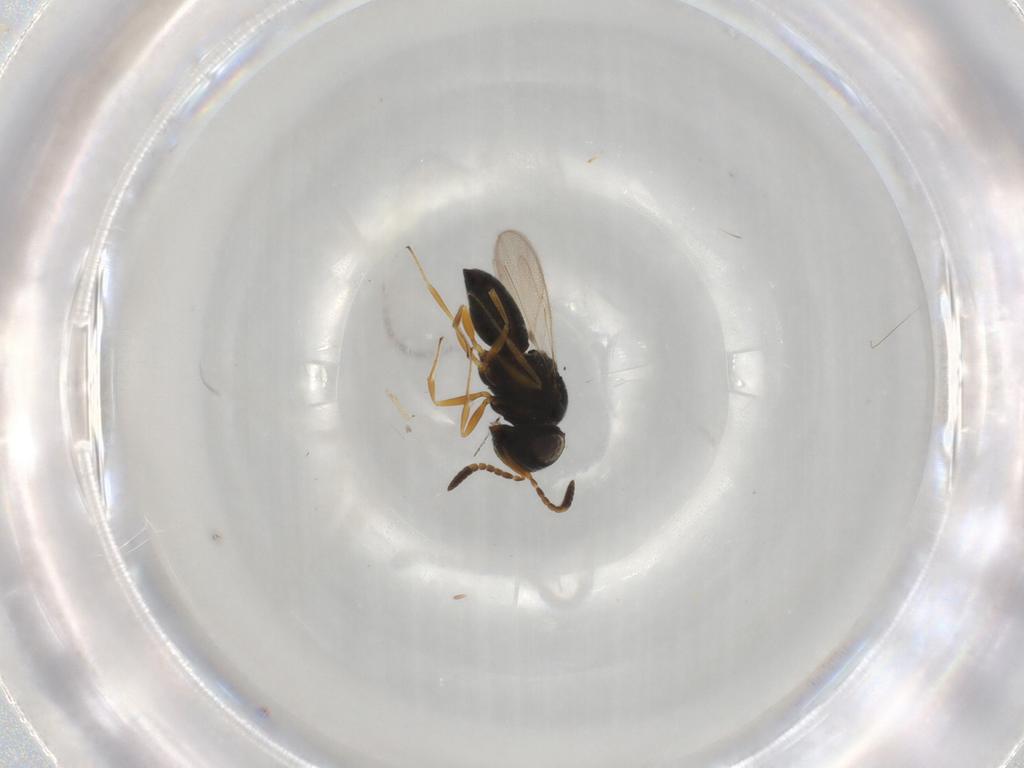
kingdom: Animalia
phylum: Arthropoda
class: Insecta
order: Hymenoptera
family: Scelionidae
